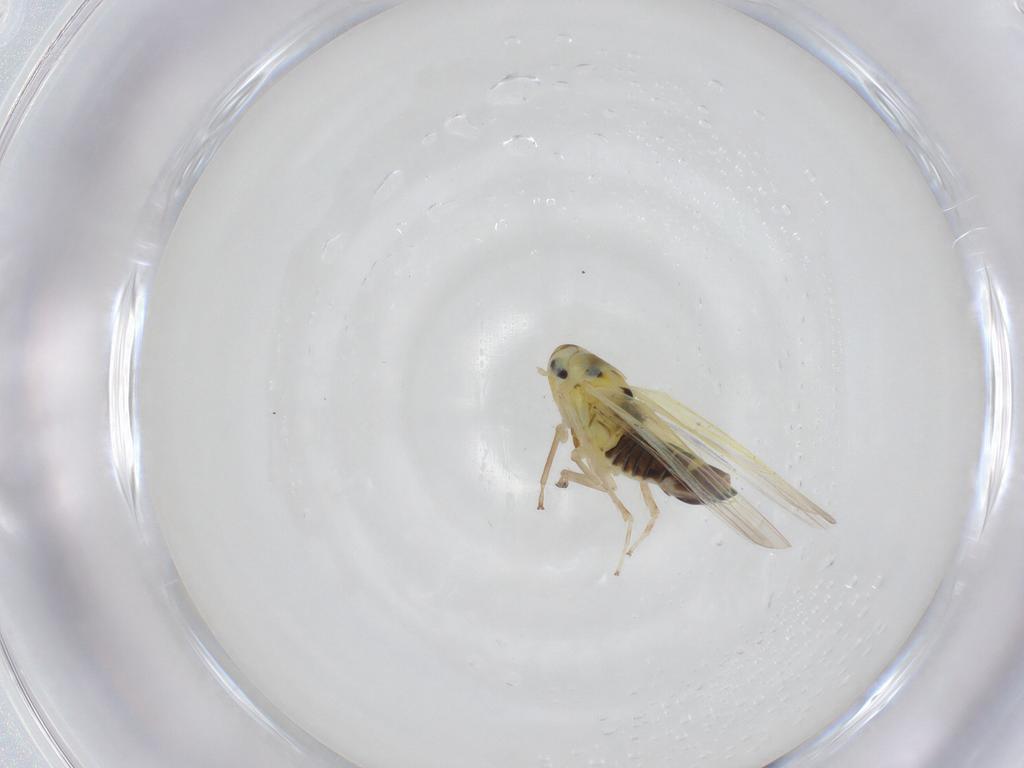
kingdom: Animalia
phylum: Arthropoda
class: Insecta
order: Hemiptera
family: Cicadellidae
